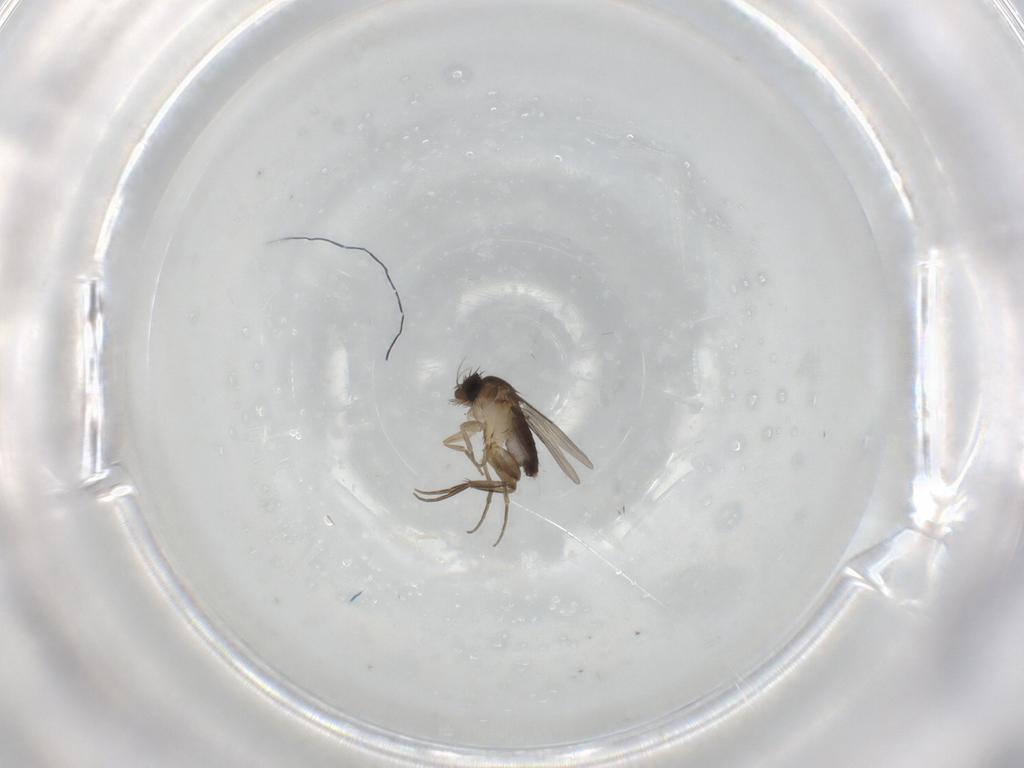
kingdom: Animalia
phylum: Arthropoda
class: Insecta
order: Diptera
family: Phoridae
